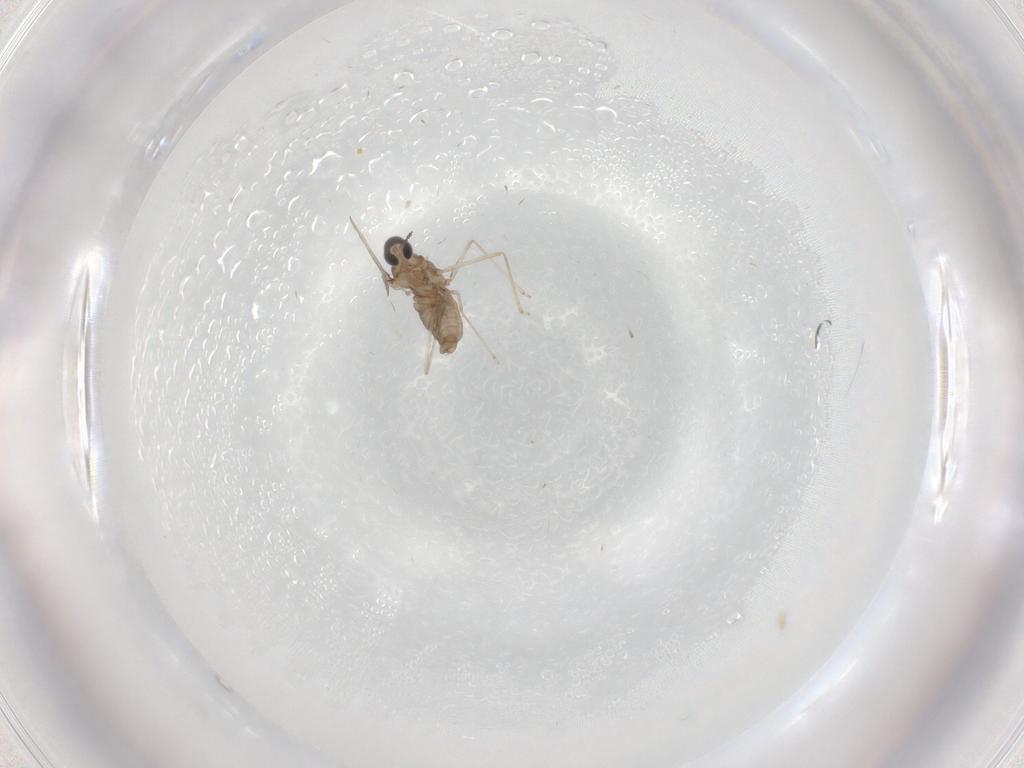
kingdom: Animalia
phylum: Arthropoda
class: Insecta
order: Diptera
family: Cecidomyiidae
